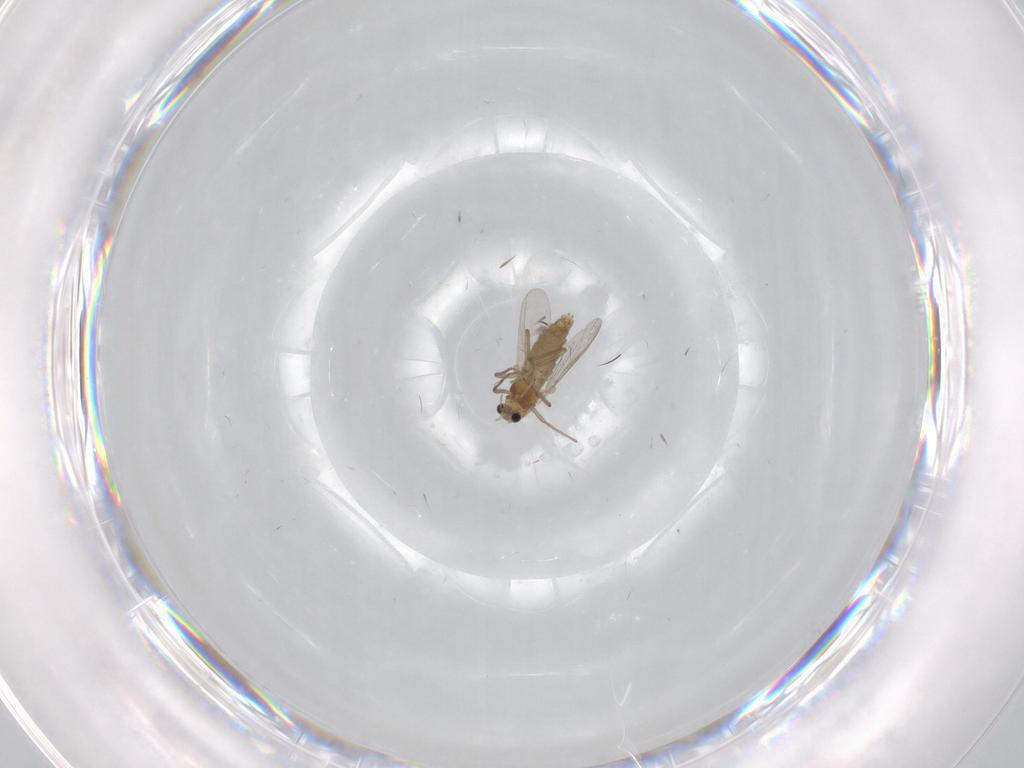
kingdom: Animalia
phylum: Arthropoda
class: Insecta
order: Diptera
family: Chironomidae
